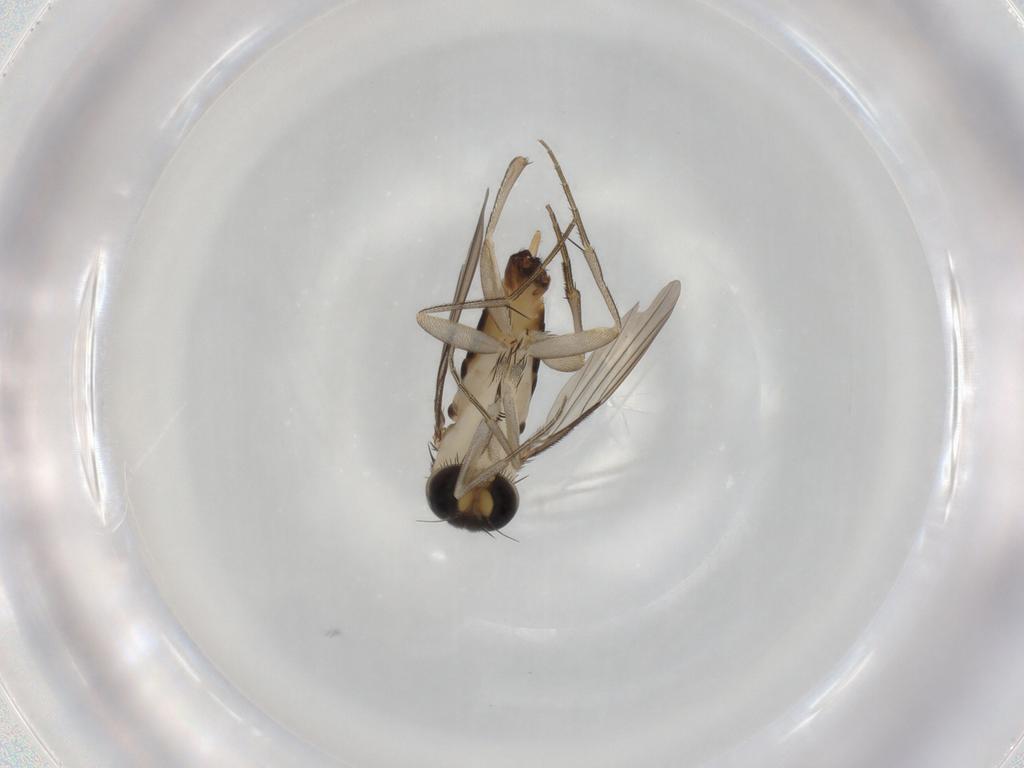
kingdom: Animalia
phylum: Arthropoda
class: Insecta
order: Diptera
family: Phoridae
